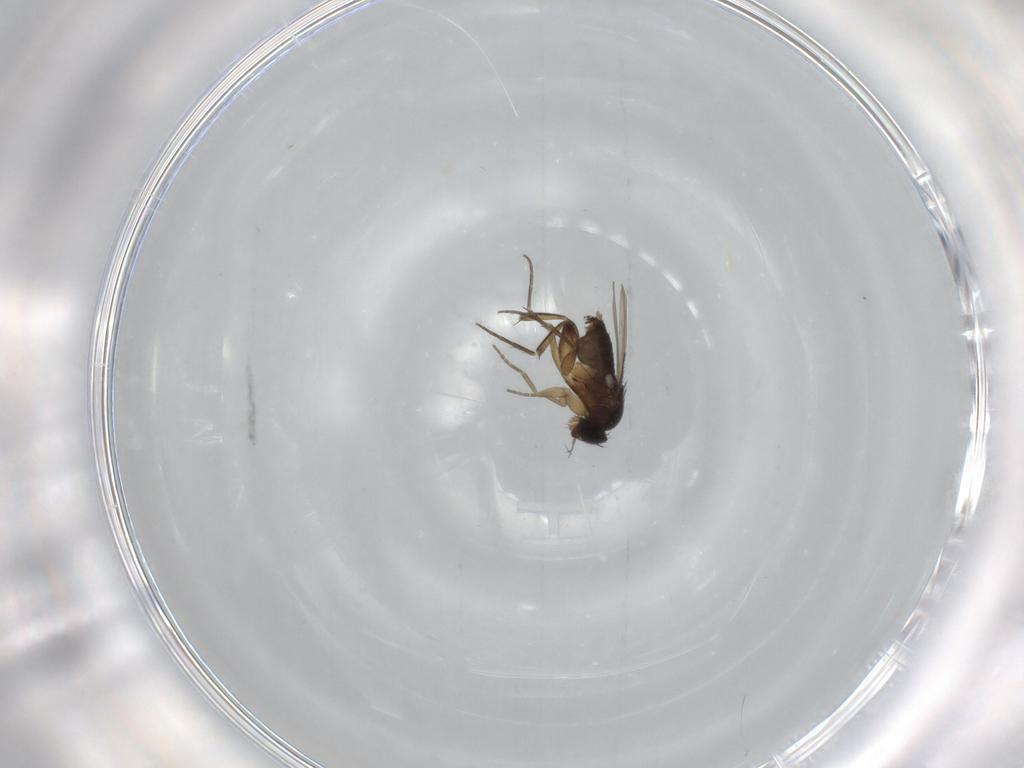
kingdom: Animalia
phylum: Arthropoda
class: Insecta
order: Diptera
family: Phoridae
